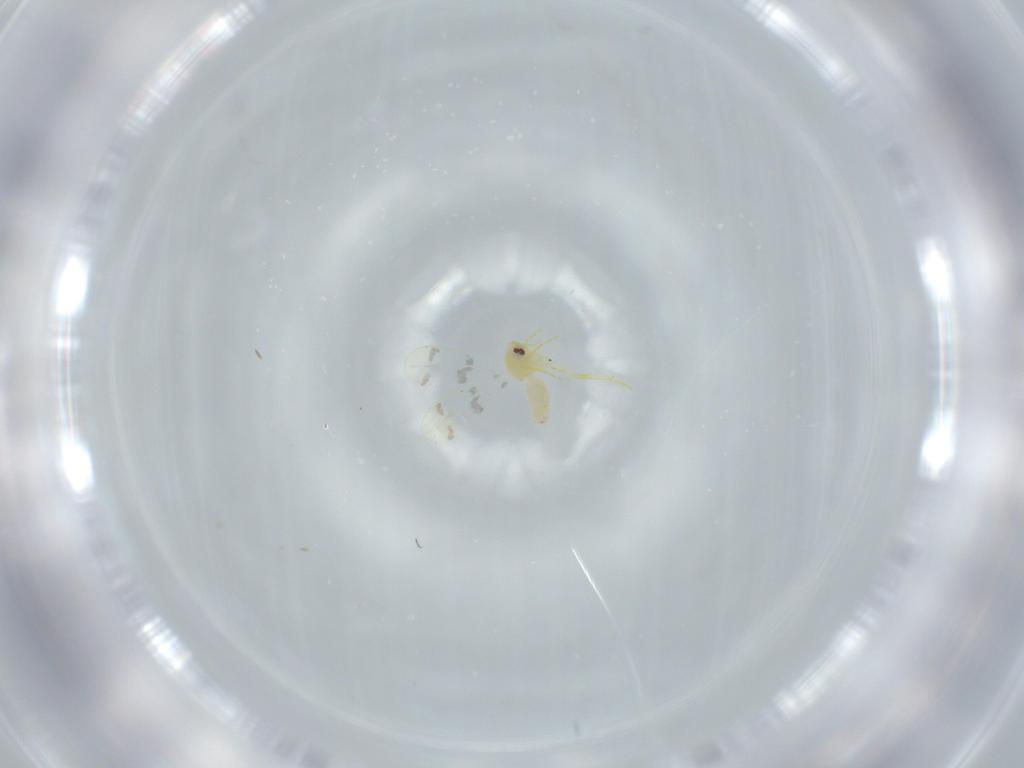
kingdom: Animalia
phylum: Arthropoda
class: Insecta
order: Hemiptera
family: Aleyrodidae
